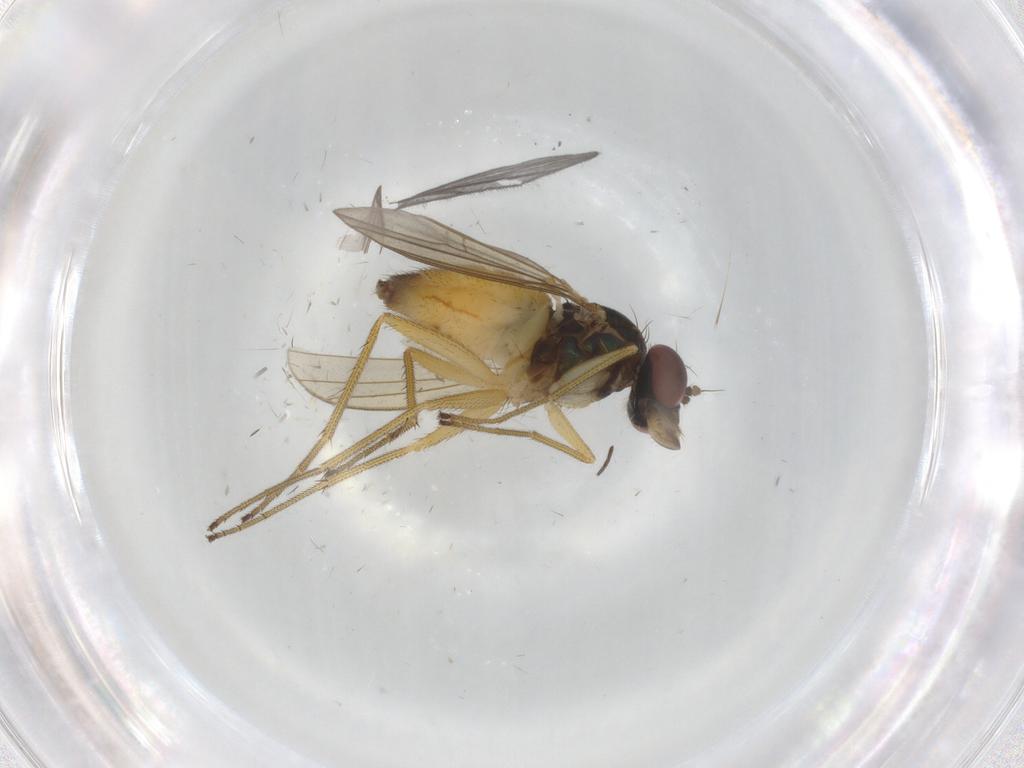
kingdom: Animalia
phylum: Arthropoda
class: Insecta
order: Diptera
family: Dolichopodidae
